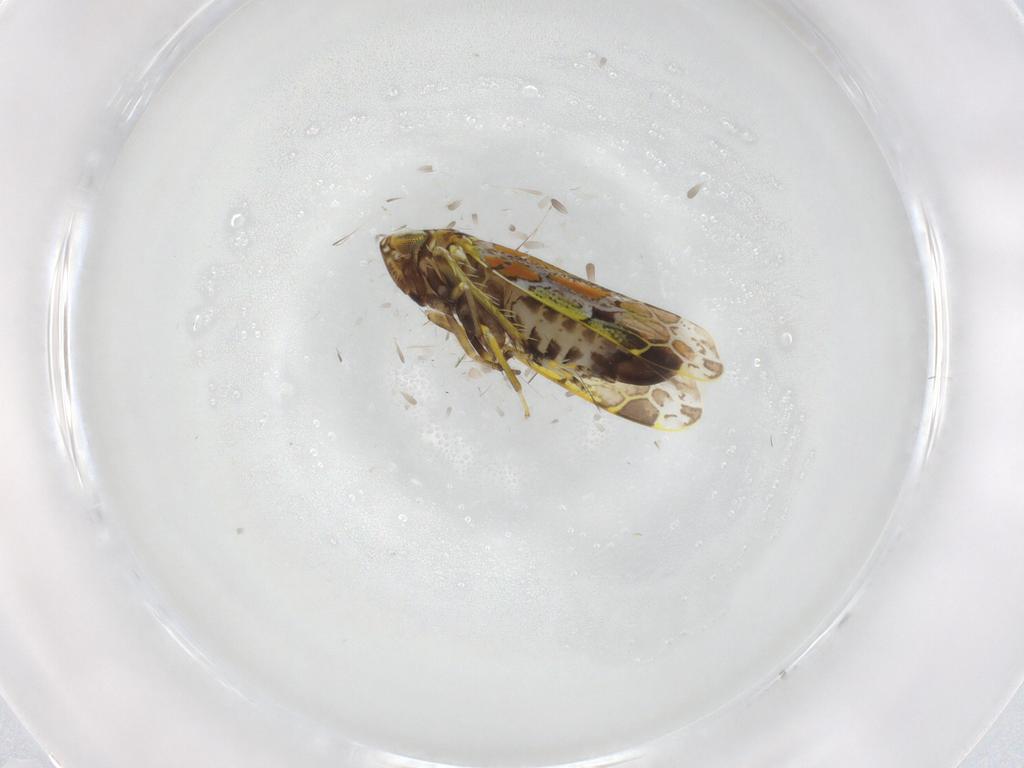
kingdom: Animalia
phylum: Arthropoda
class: Insecta
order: Hemiptera
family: Cicadellidae
